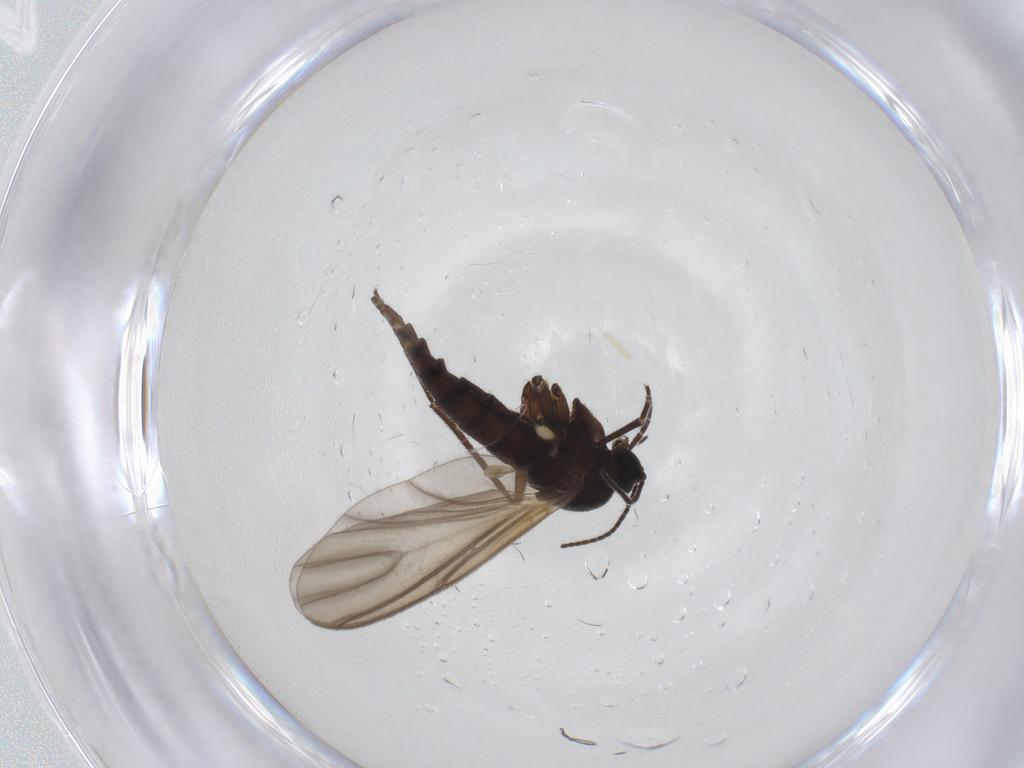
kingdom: Animalia
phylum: Arthropoda
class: Insecta
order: Diptera
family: Sciaridae
